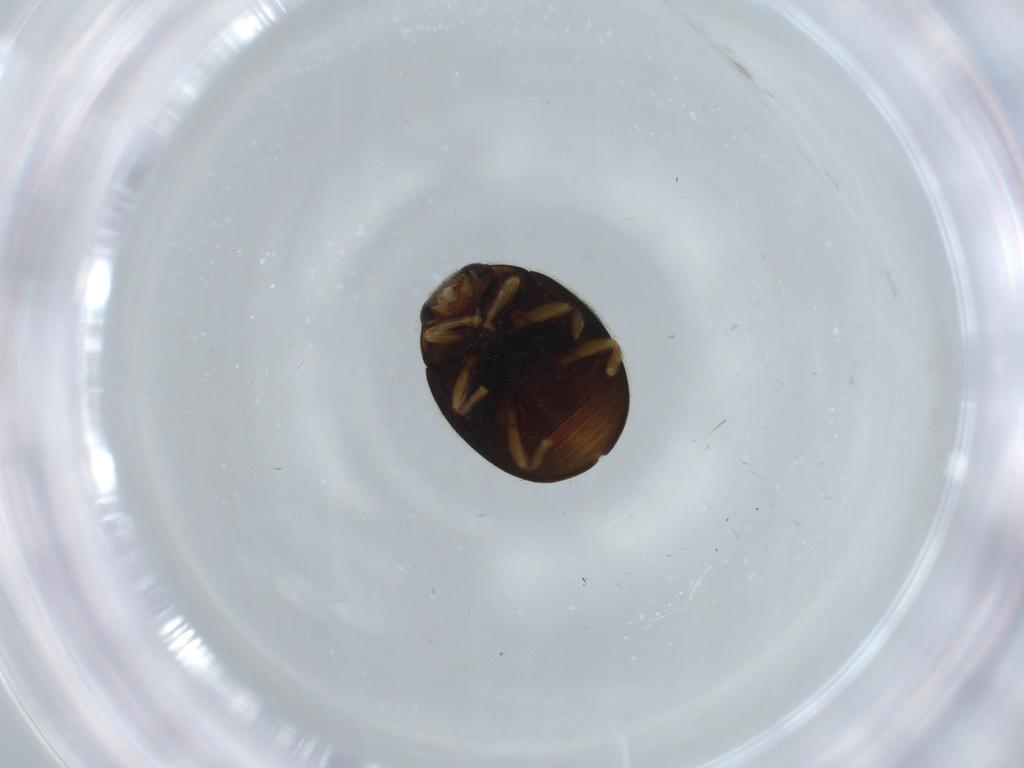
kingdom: Animalia
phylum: Arthropoda
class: Insecta
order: Coleoptera
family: Coccinellidae
